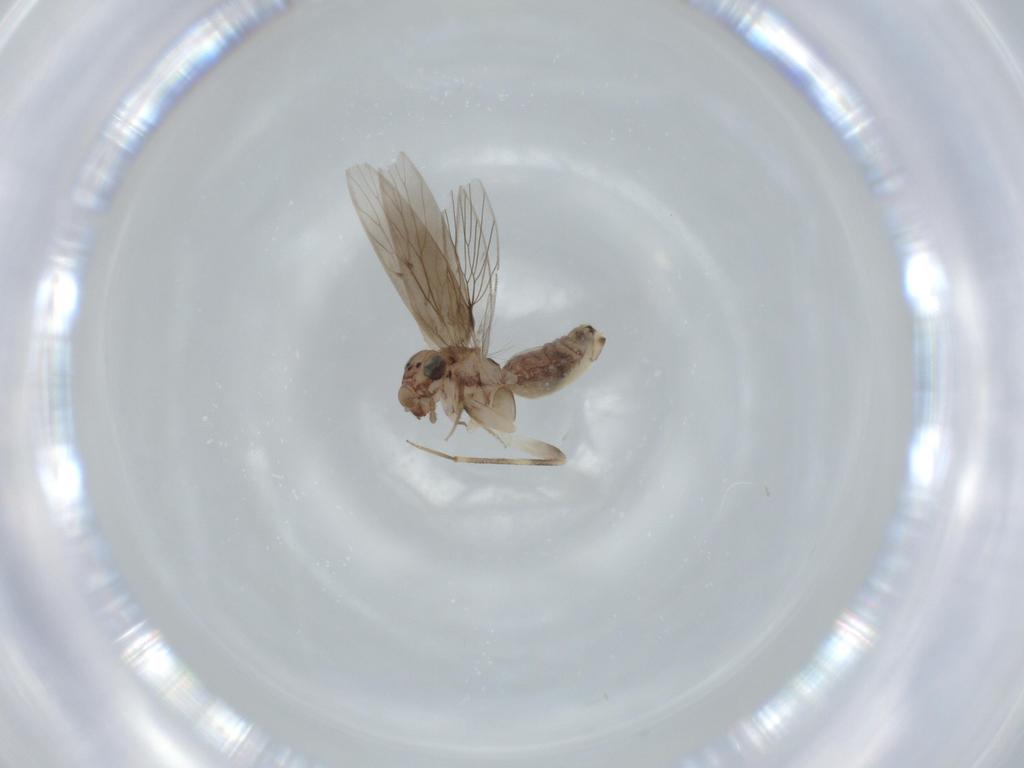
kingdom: Animalia
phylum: Arthropoda
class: Insecta
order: Psocodea
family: Lepidopsocidae
